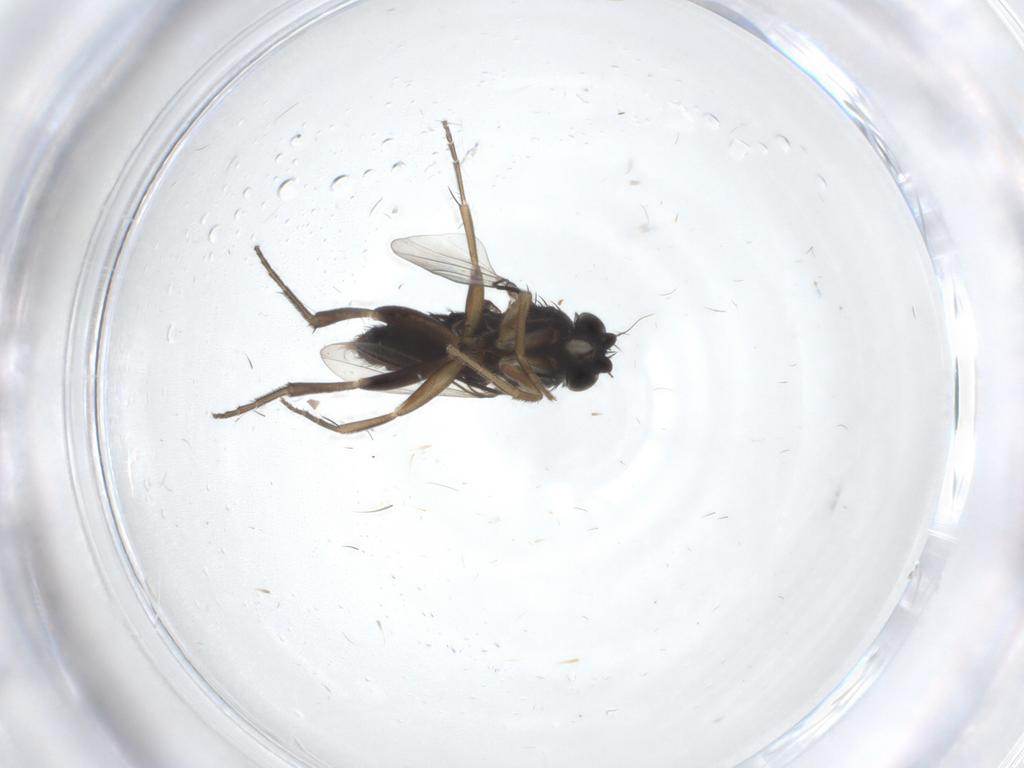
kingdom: Animalia
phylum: Arthropoda
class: Insecta
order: Diptera
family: Phoridae
